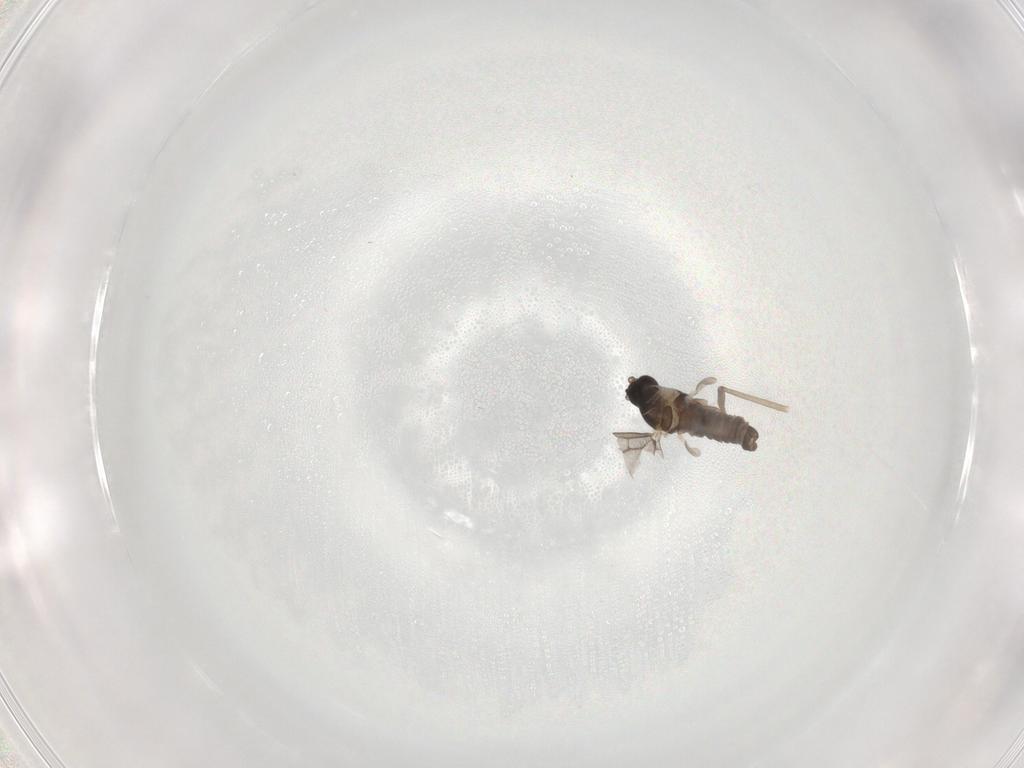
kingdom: Animalia
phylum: Arthropoda
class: Insecta
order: Diptera
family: Cecidomyiidae
